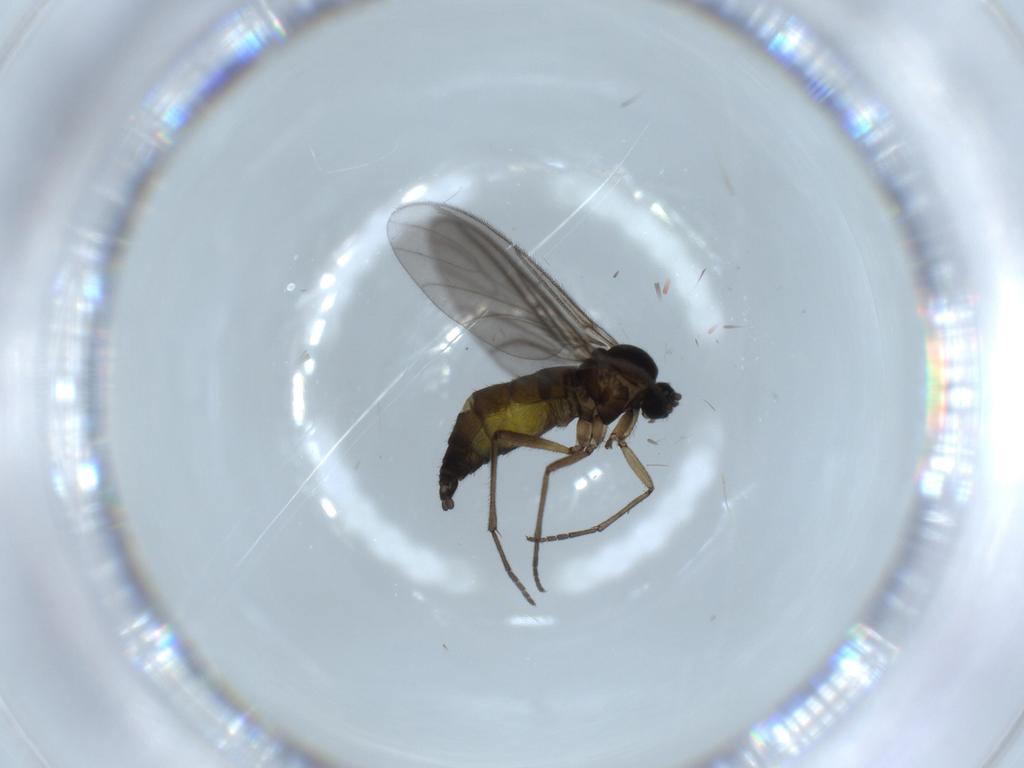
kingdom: Animalia
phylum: Arthropoda
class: Insecta
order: Diptera
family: Sciaridae
